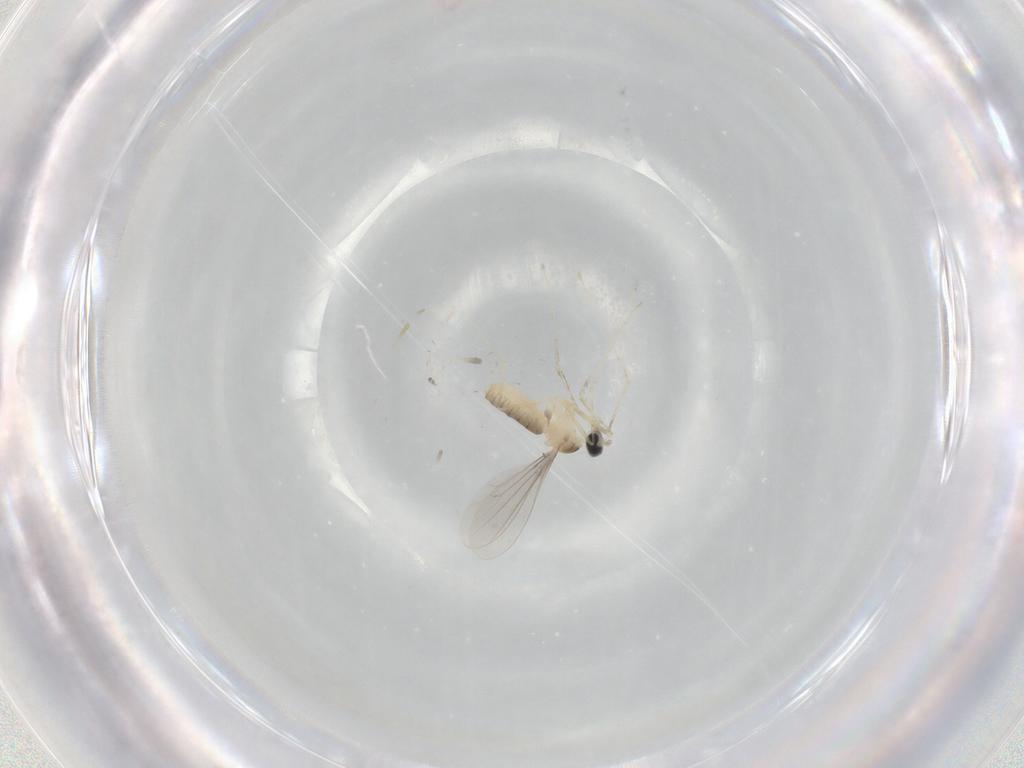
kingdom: Animalia
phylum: Arthropoda
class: Insecta
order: Diptera
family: Cecidomyiidae
